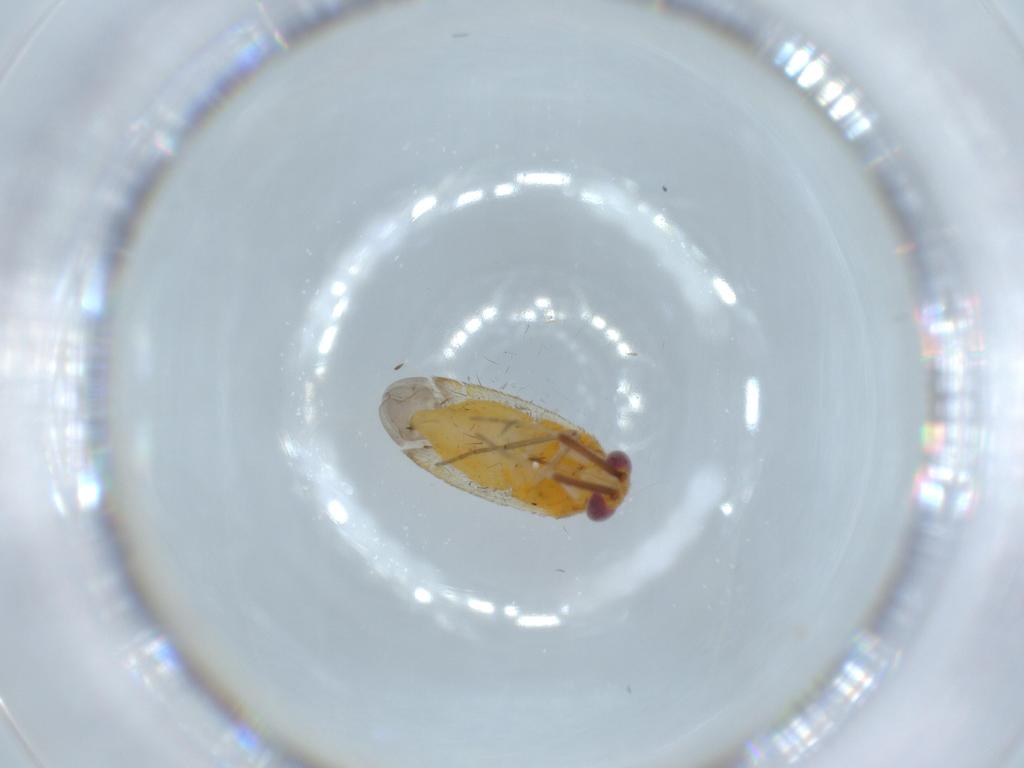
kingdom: Animalia
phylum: Arthropoda
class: Insecta
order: Hemiptera
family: Miridae
